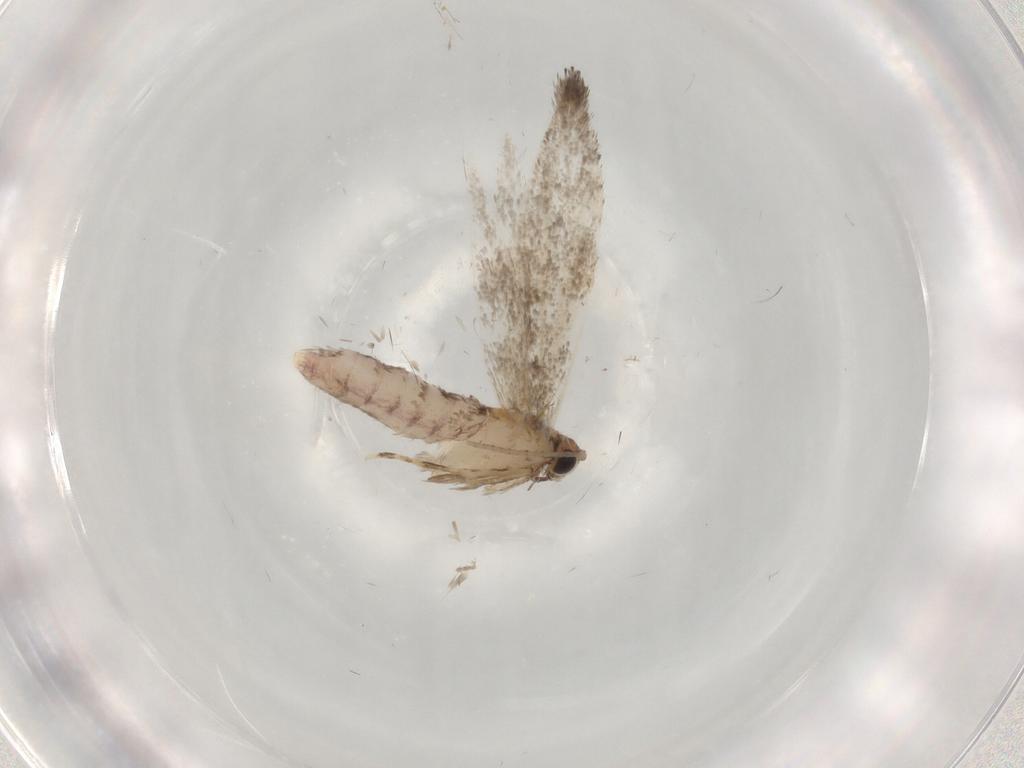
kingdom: Animalia
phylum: Arthropoda
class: Insecta
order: Lepidoptera
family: Tineidae
